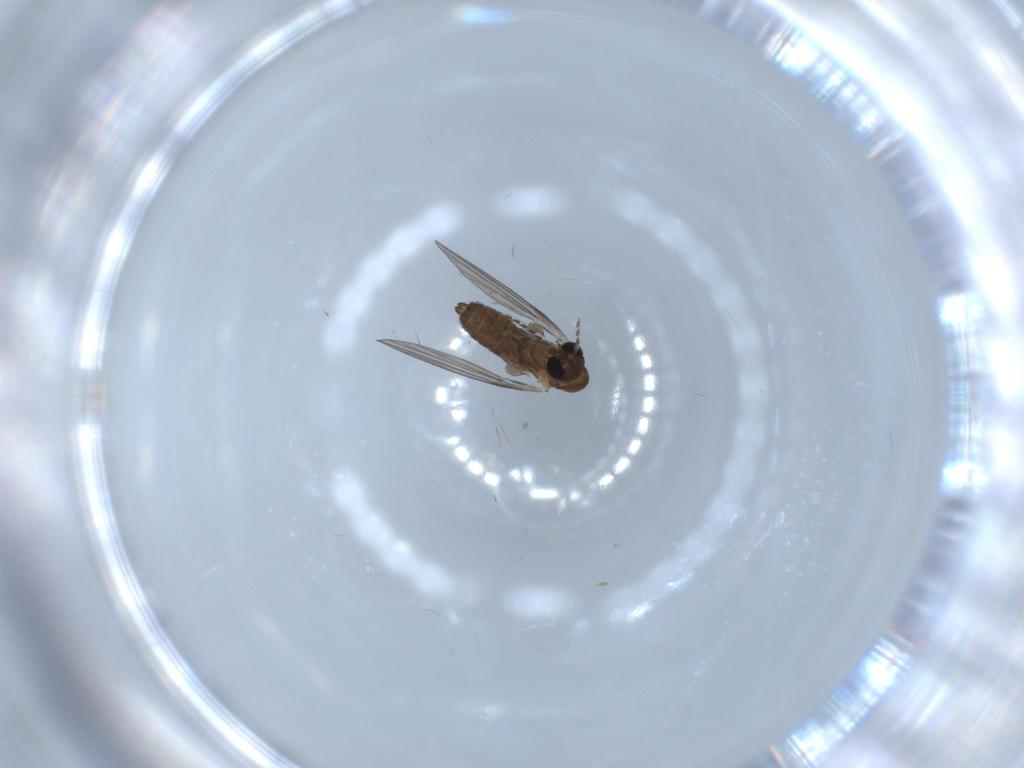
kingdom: Animalia
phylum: Arthropoda
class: Insecta
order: Diptera
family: Psychodidae
